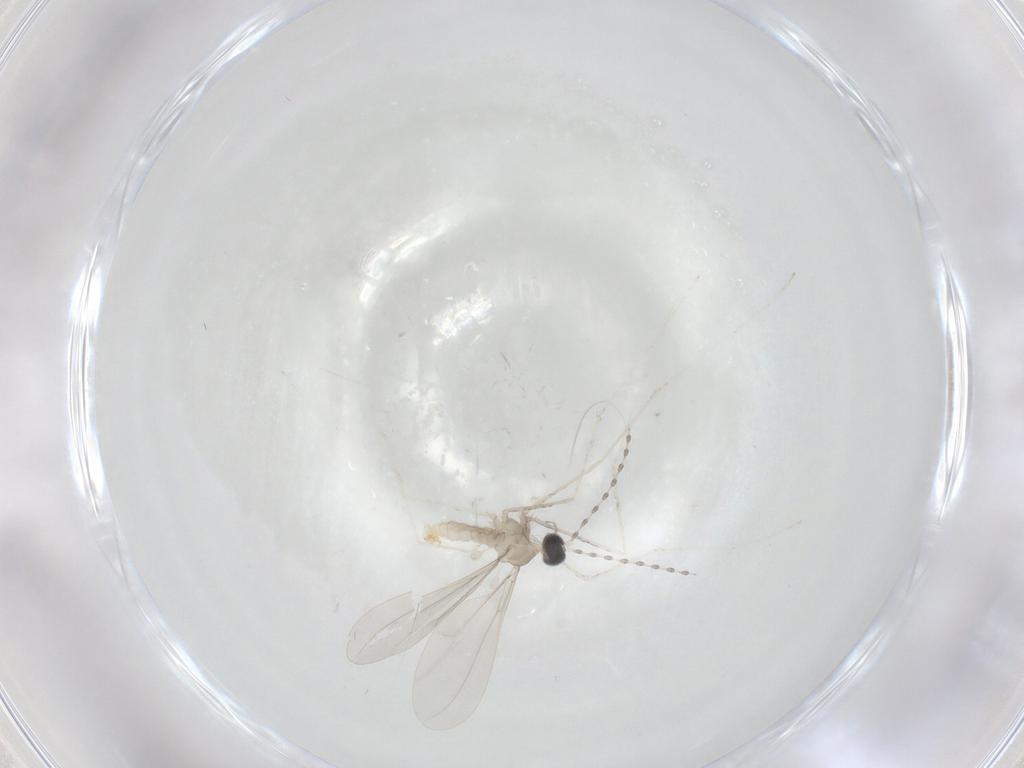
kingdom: Animalia
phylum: Arthropoda
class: Insecta
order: Diptera
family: Cecidomyiidae
